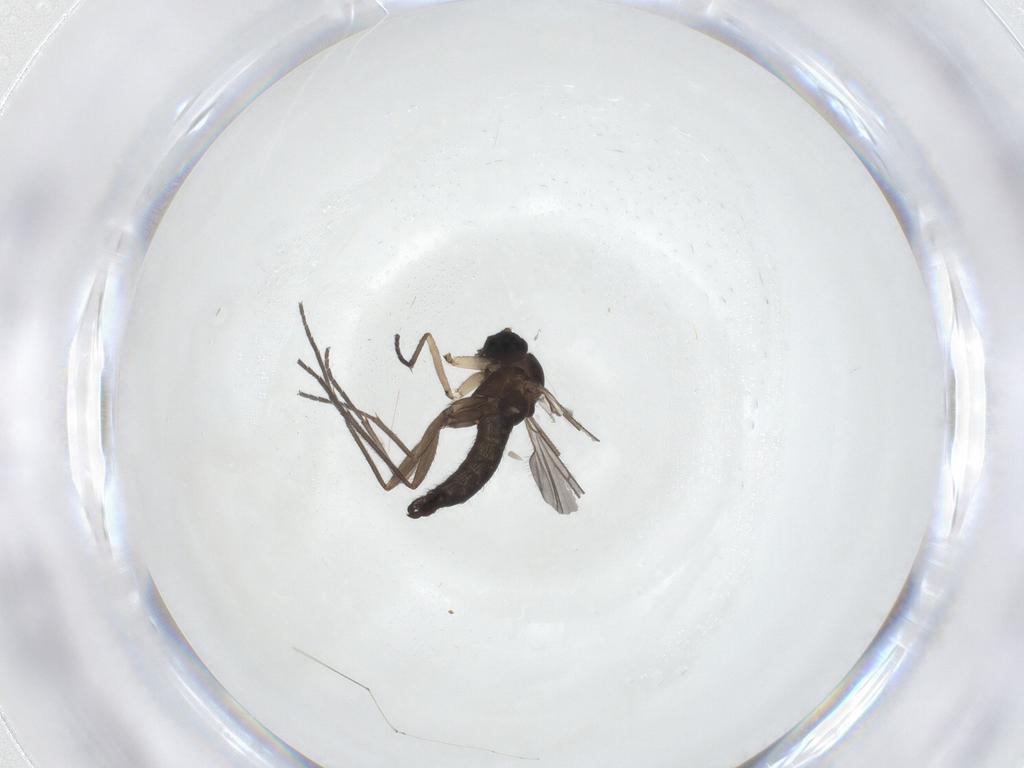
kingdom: Animalia
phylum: Arthropoda
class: Insecta
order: Diptera
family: Sciaridae
